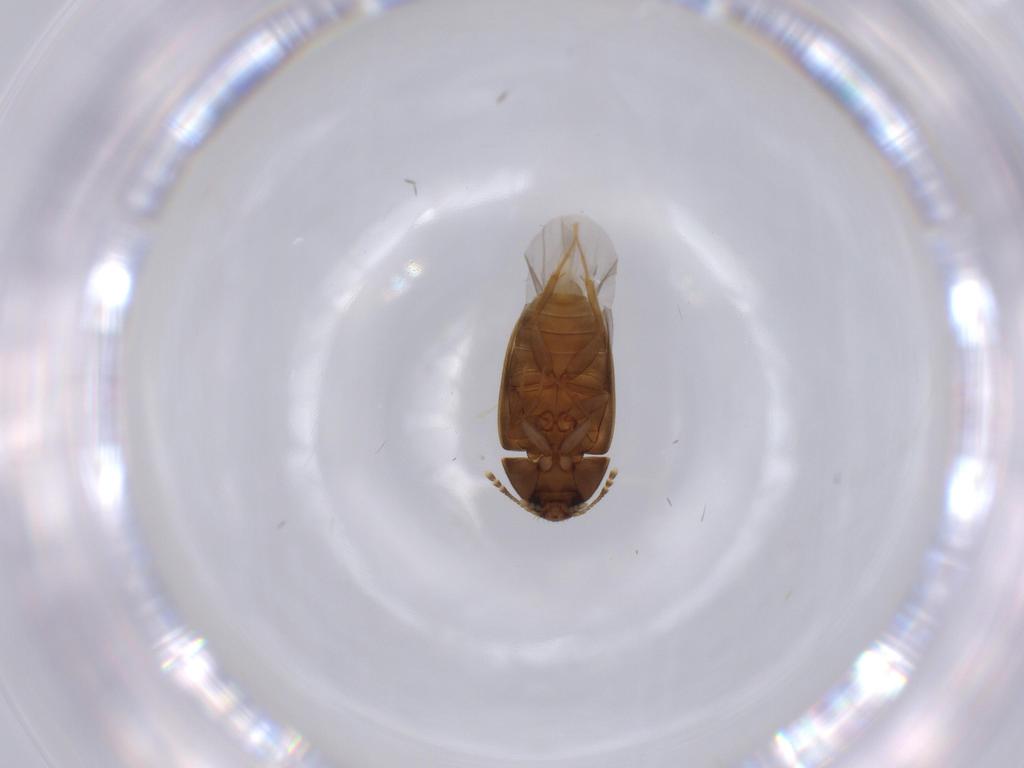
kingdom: Animalia
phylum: Arthropoda
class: Insecta
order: Coleoptera
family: Mycetophagidae
